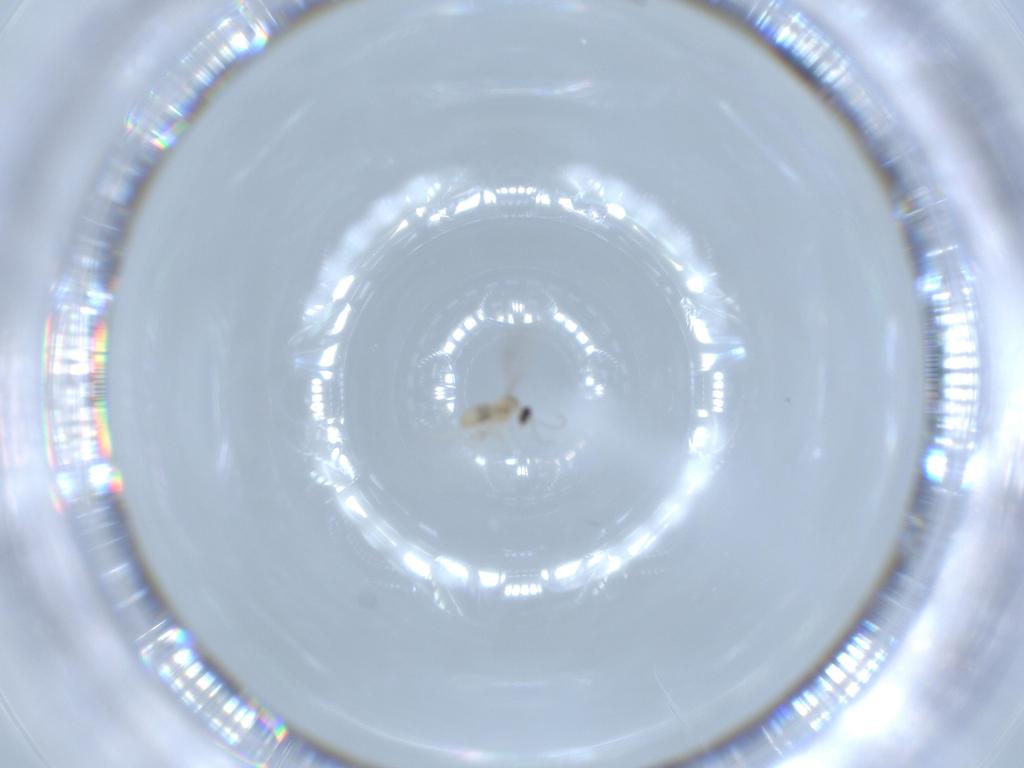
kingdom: Animalia
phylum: Arthropoda
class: Insecta
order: Diptera
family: Cecidomyiidae
